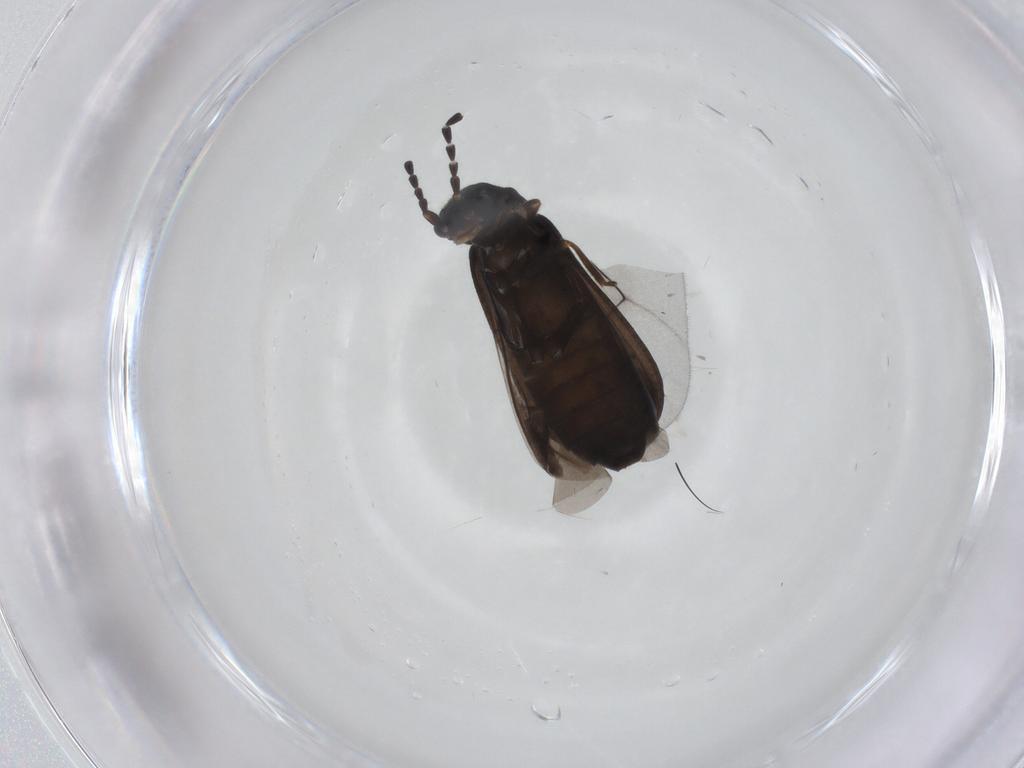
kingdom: Animalia
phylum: Arthropoda
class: Insecta
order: Coleoptera
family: Cantharidae
